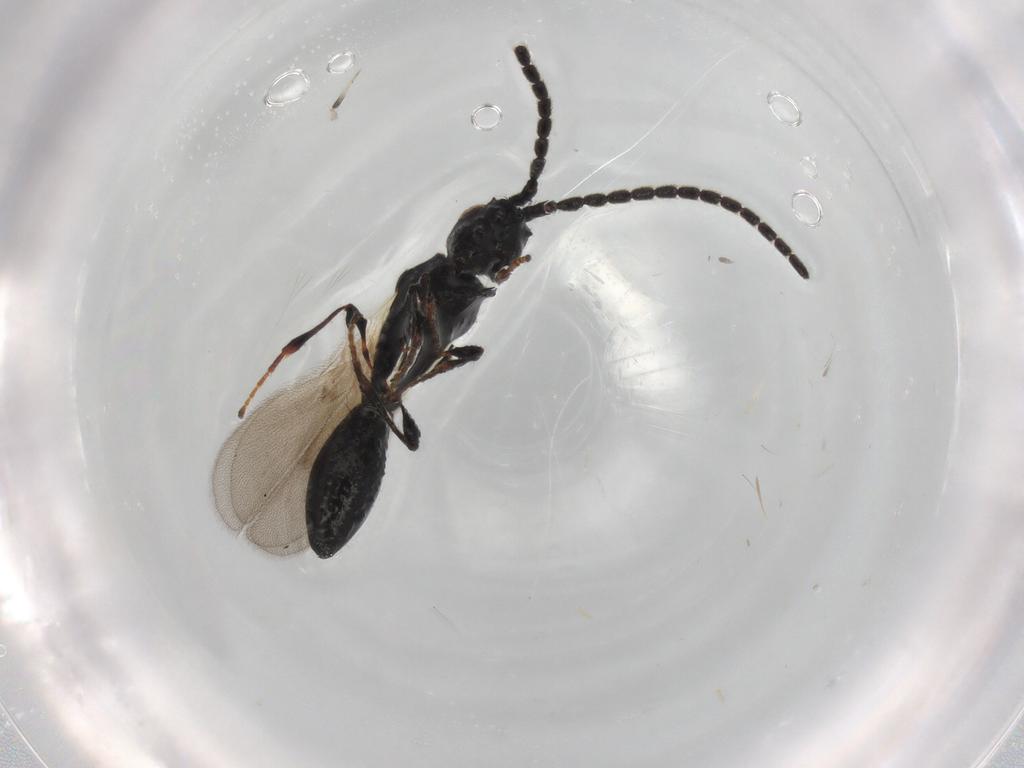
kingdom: Animalia
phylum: Arthropoda
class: Insecta
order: Hymenoptera
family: Diapriidae
